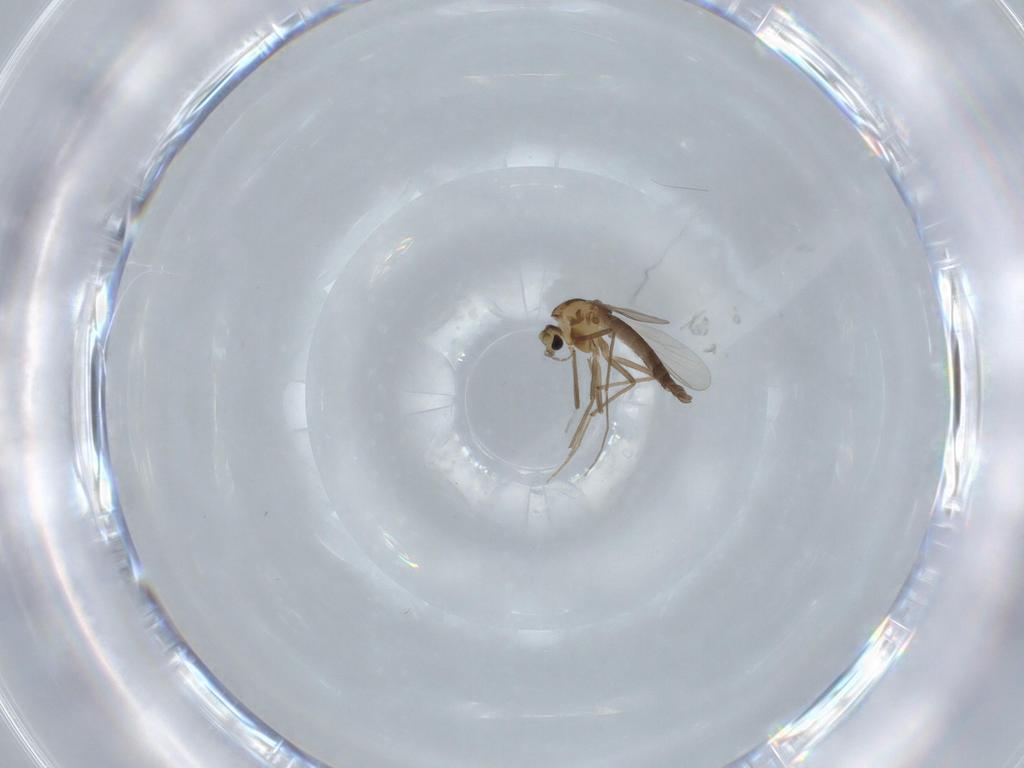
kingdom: Animalia
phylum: Arthropoda
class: Insecta
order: Diptera
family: Chironomidae
